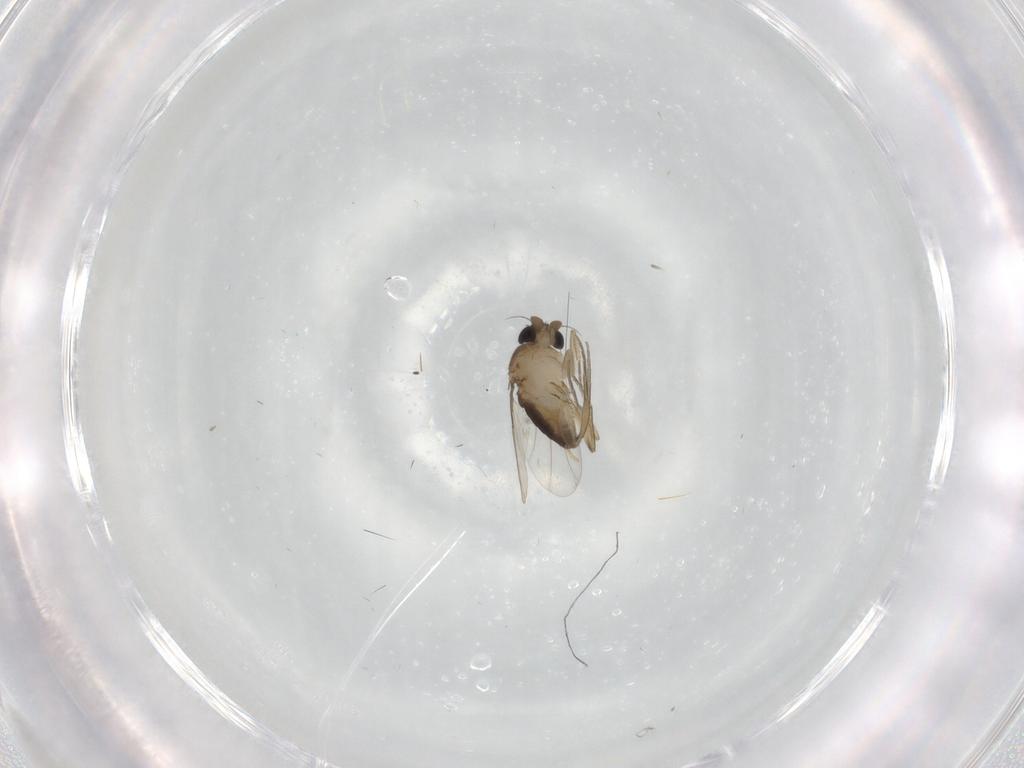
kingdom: Animalia
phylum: Arthropoda
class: Insecta
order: Diptera
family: Phoridae
